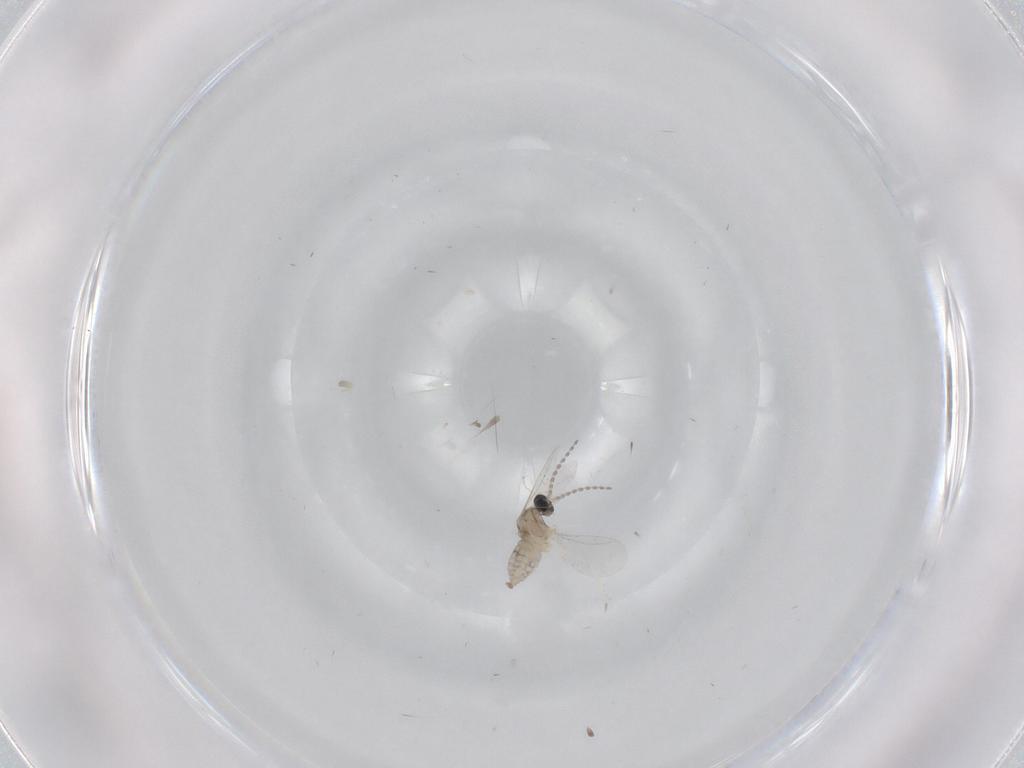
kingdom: Animalia
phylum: Arthropoda
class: Insecta
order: Diptera
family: Cecidomyiidae
